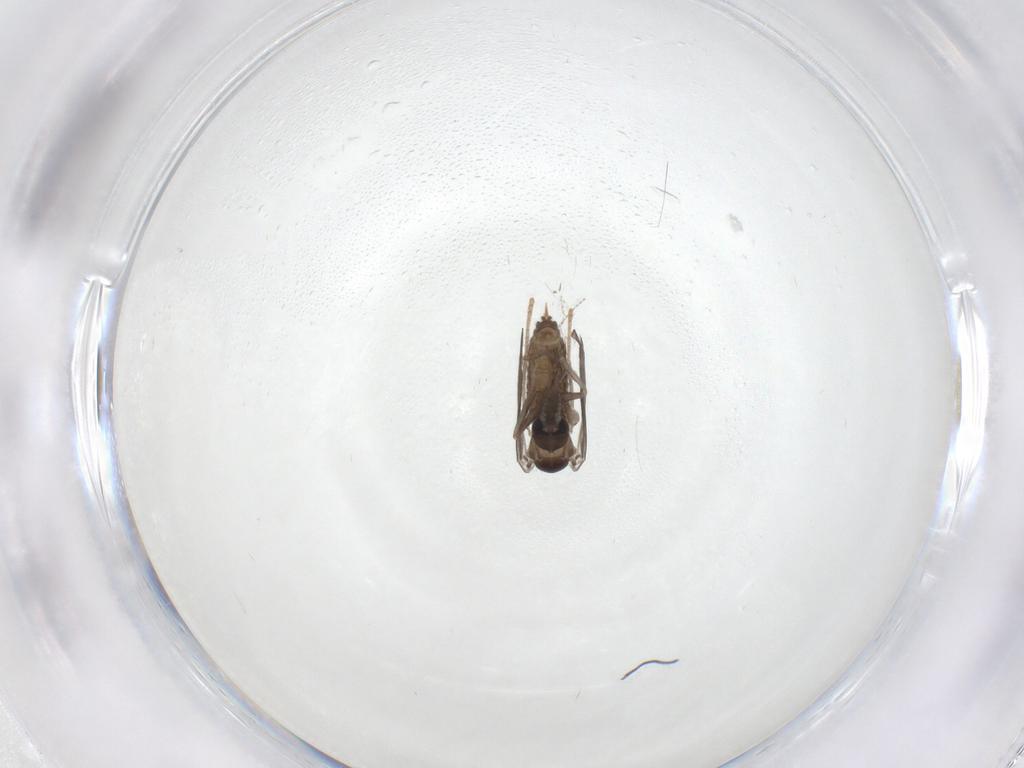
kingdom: Animalia
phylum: Arthropoda
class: Insecta
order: Diptera
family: Psychodidae
